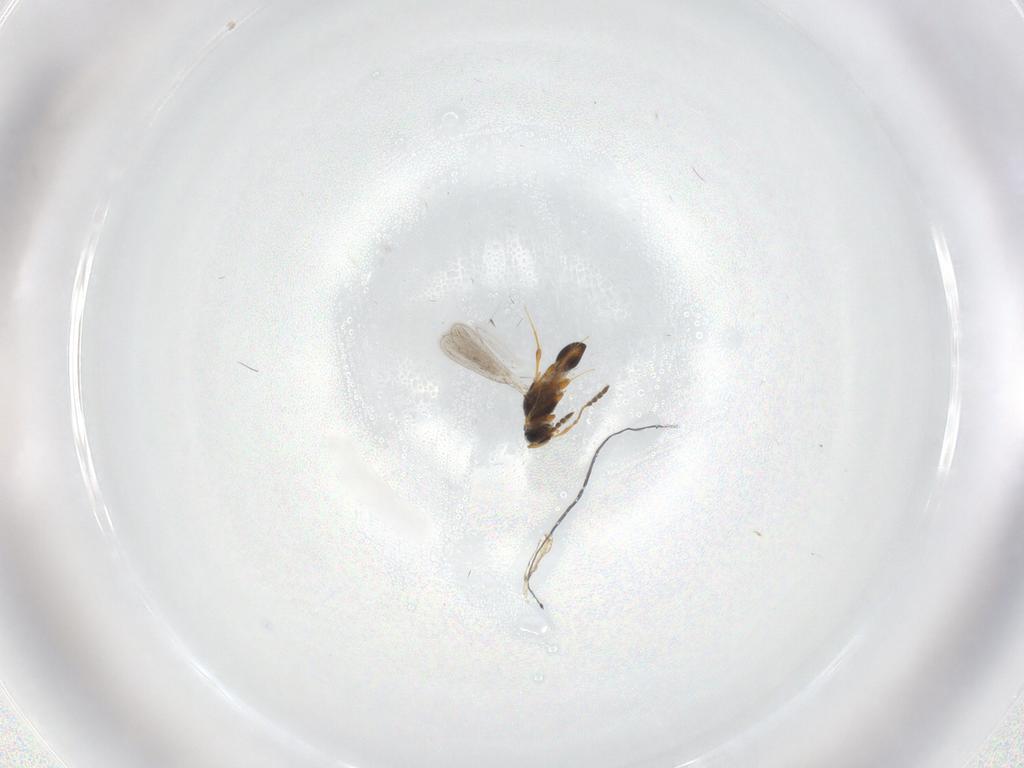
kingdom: Animalia
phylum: Arthropoda
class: Insecta
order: Hymenoptera
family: Platygastridae
